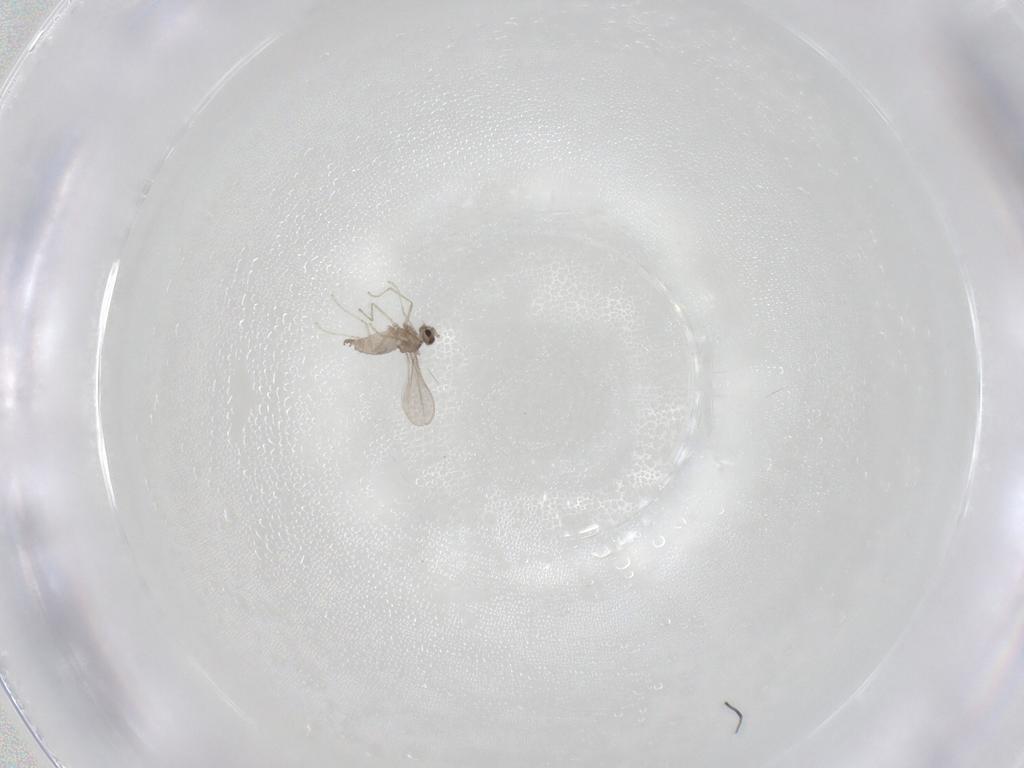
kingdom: Animalia
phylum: Arthropoda
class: Insecta
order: Diptera
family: Cecidomyiidae
